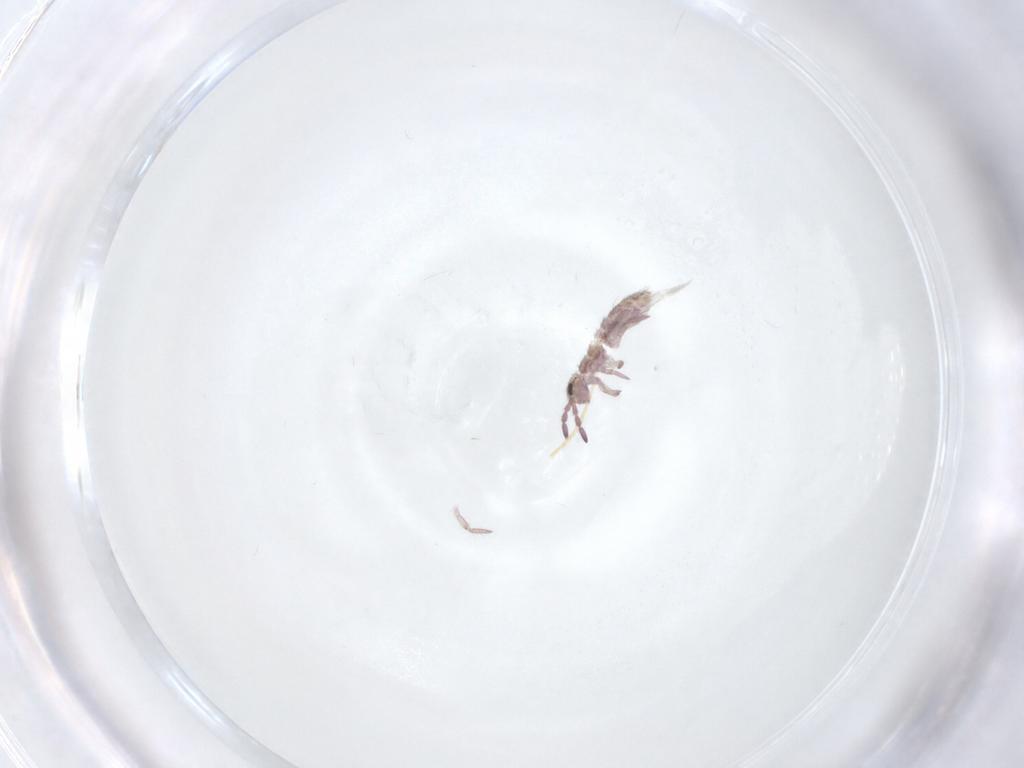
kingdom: Animalia
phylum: Arthropoda
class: Collembola
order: Entomobryomorpha
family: Isotomidae
